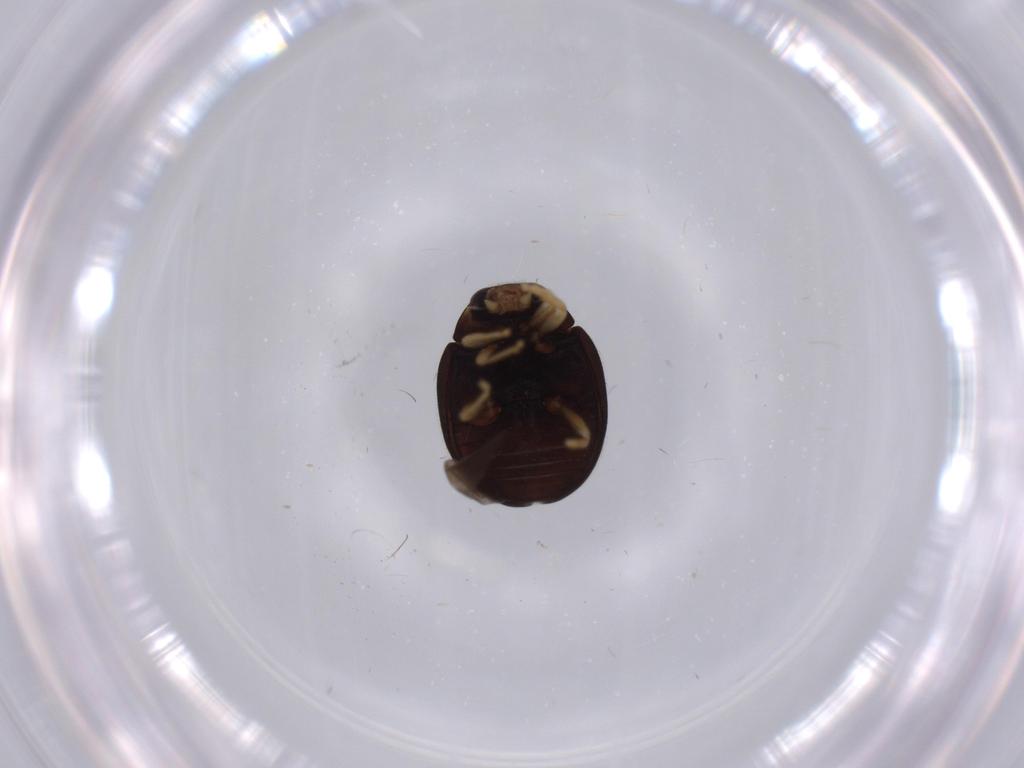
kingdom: Animalia
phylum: Arthropoda
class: Insecta
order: Coleoptera
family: Coccinellidae
